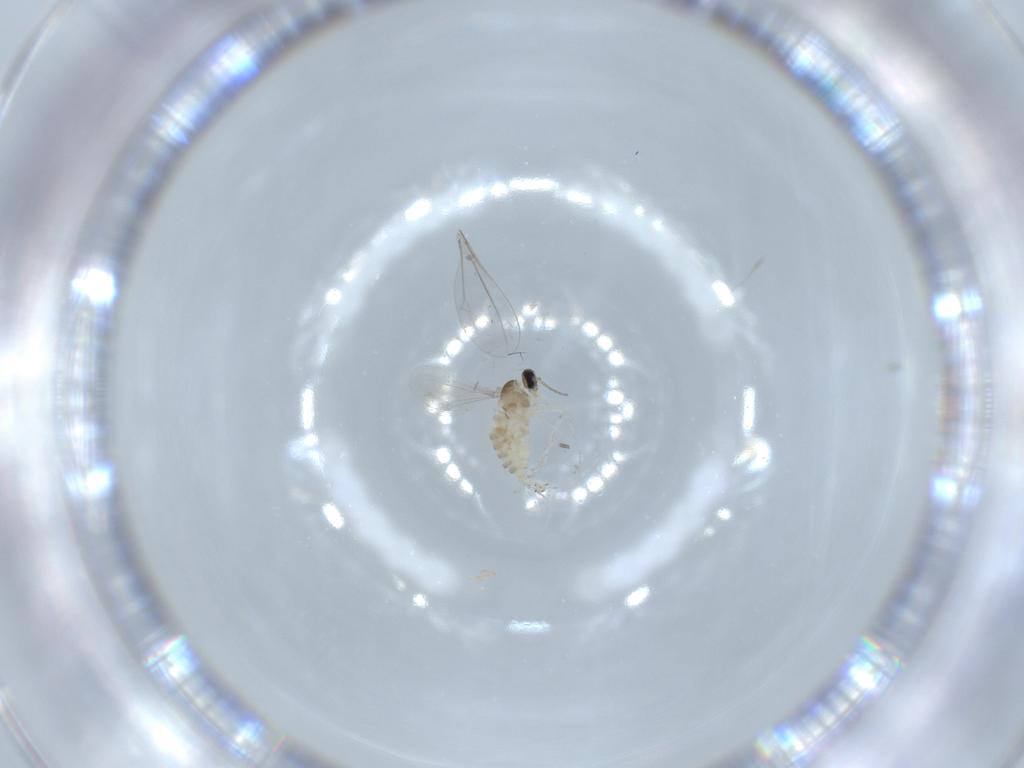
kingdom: Animalia
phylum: Arthropoda
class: Insecta
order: Diptera
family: Cecidomyiidae
